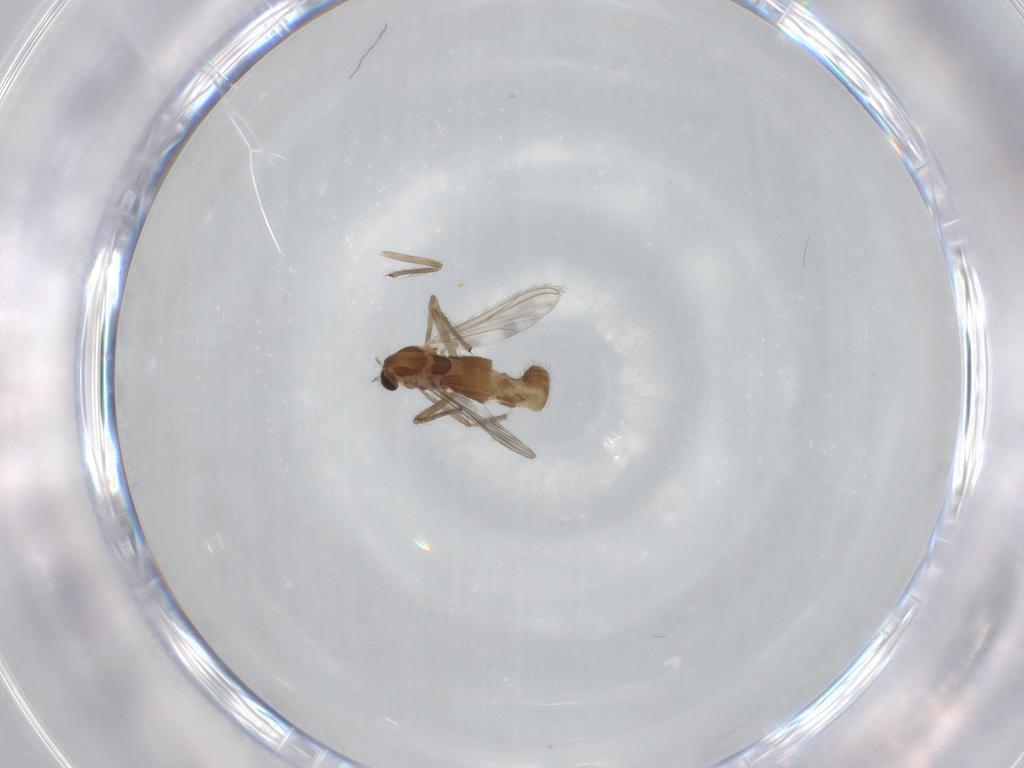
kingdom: Animalia
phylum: Arthropoda
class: Insecta
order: Diptera
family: Chironomidae
